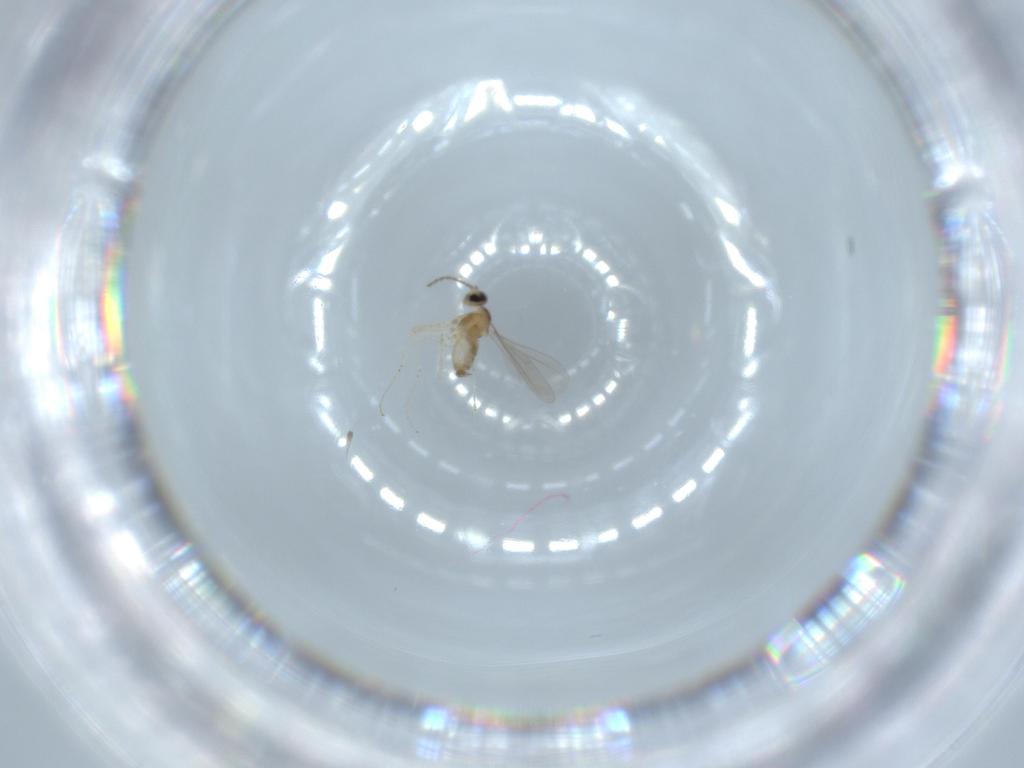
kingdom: Animalia
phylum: Arthropoda
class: Insecta
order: Diptera
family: Cecidomyiidae
